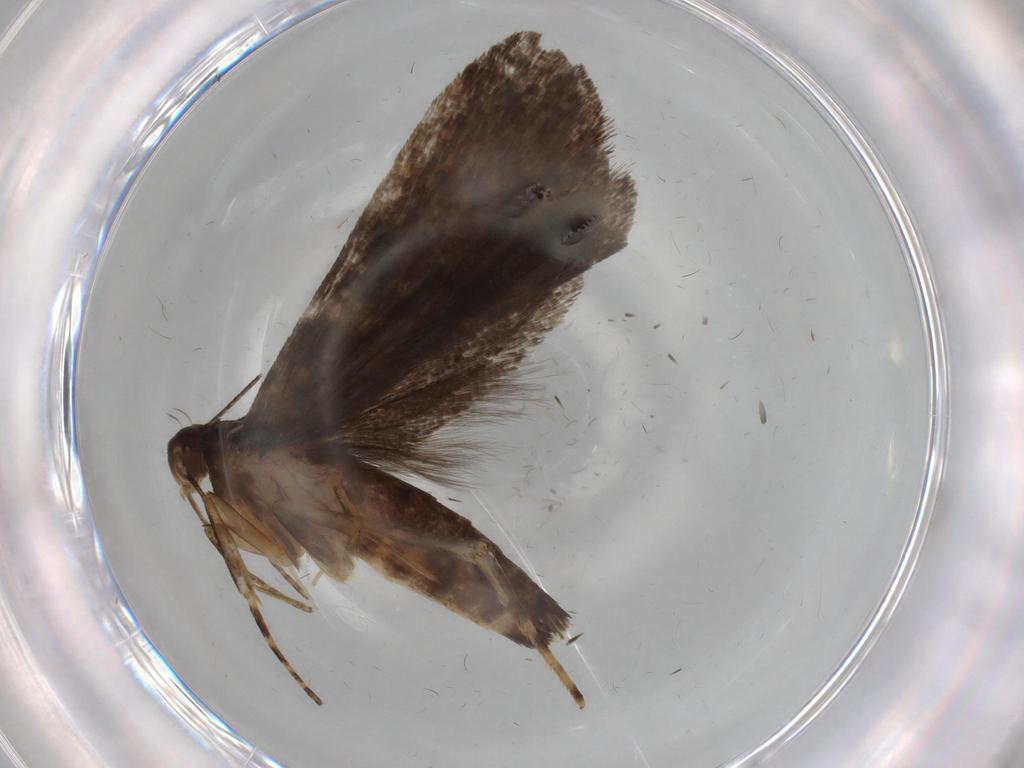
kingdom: Animalia
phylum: Arthropoda
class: Insecta
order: Lepidoptera
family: Gelechiidae
